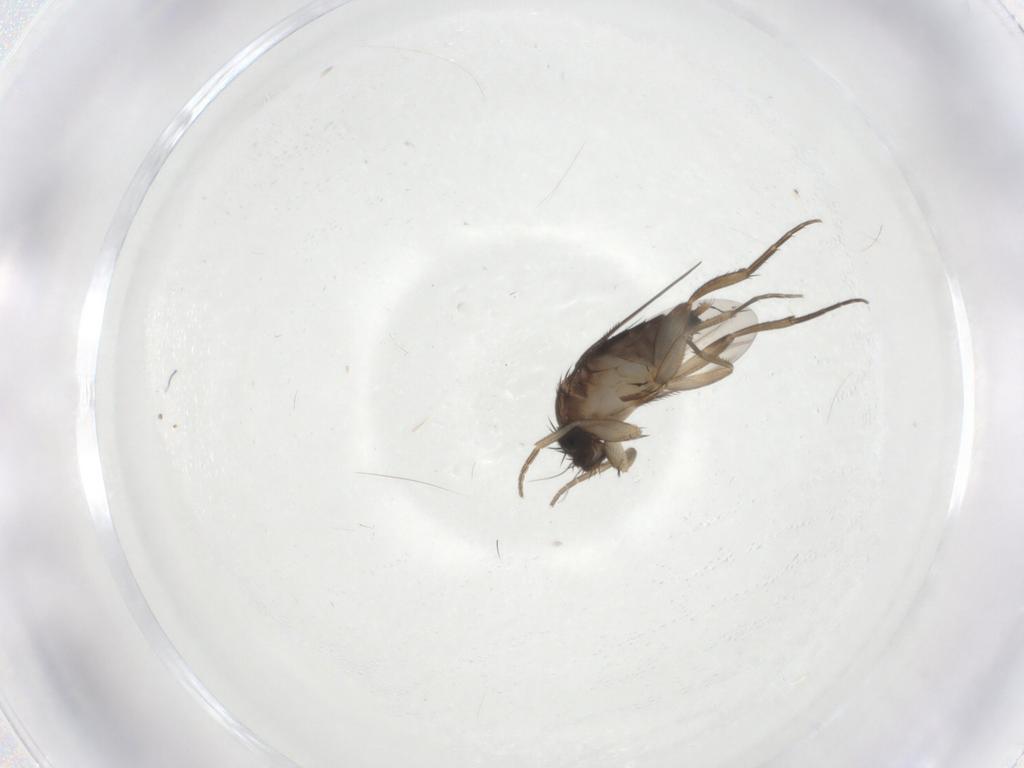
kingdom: Animalia
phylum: Arthropoda
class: Insecta
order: Diptera
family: Phoridae
